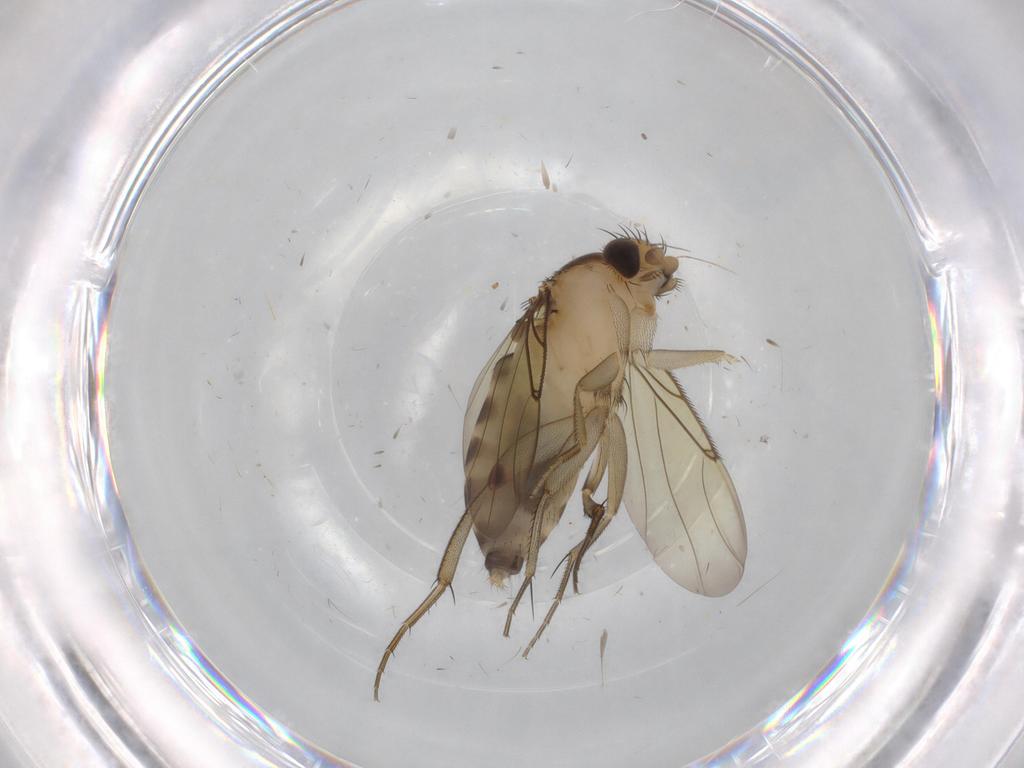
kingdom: Animalia
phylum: Arthropoda
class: Insecta
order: Diptera
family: Phoridae
